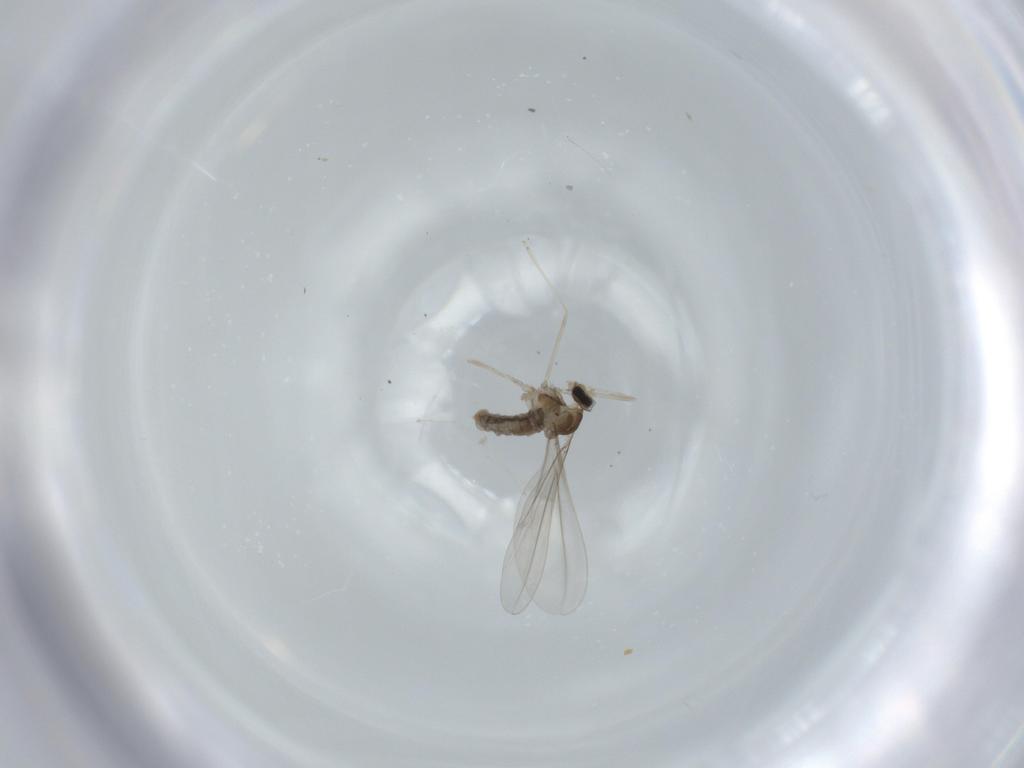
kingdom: Animalia
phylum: Arthropoda
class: Insecta
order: Diptera
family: Cecidomyiidae
